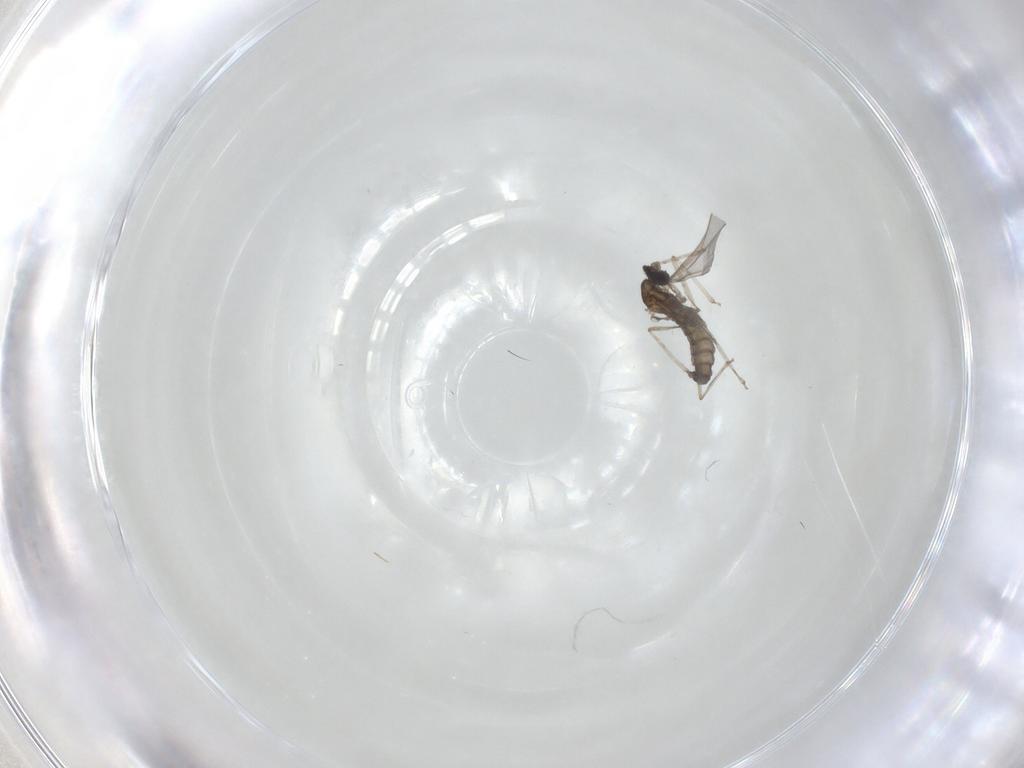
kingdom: Animalia
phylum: Arthropoda
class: Insecta
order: Diptera
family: Cecidomyiidae
